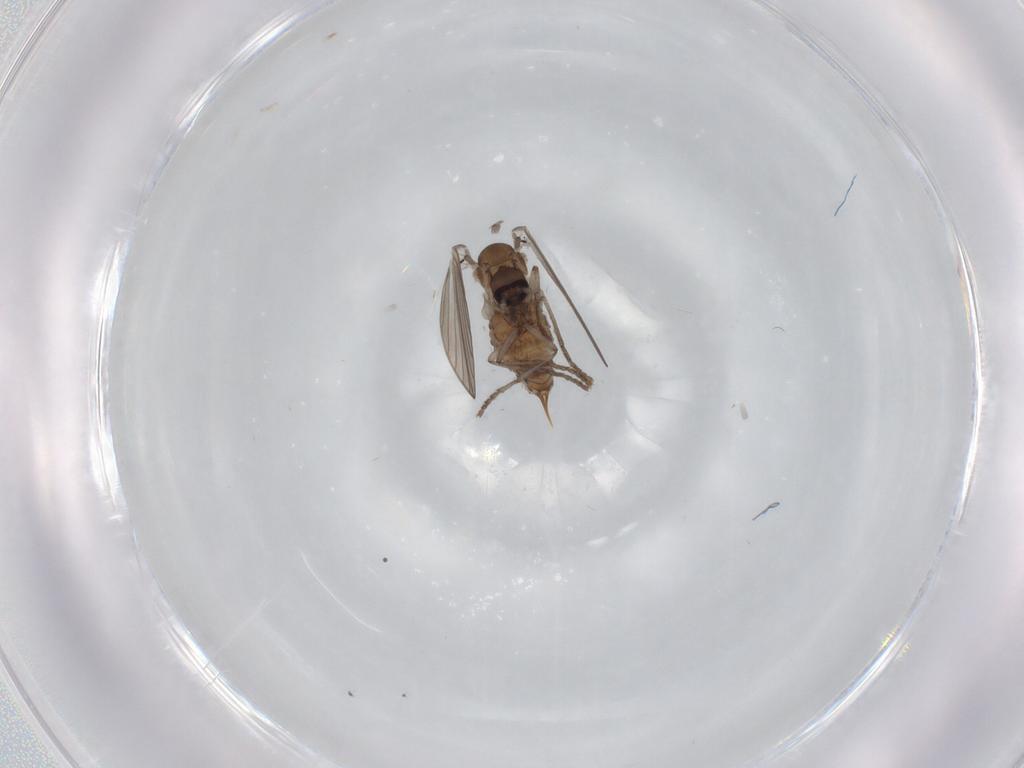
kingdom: Animalia
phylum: Arthropoda
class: Insecta
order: Diptera
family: Psychodidae
